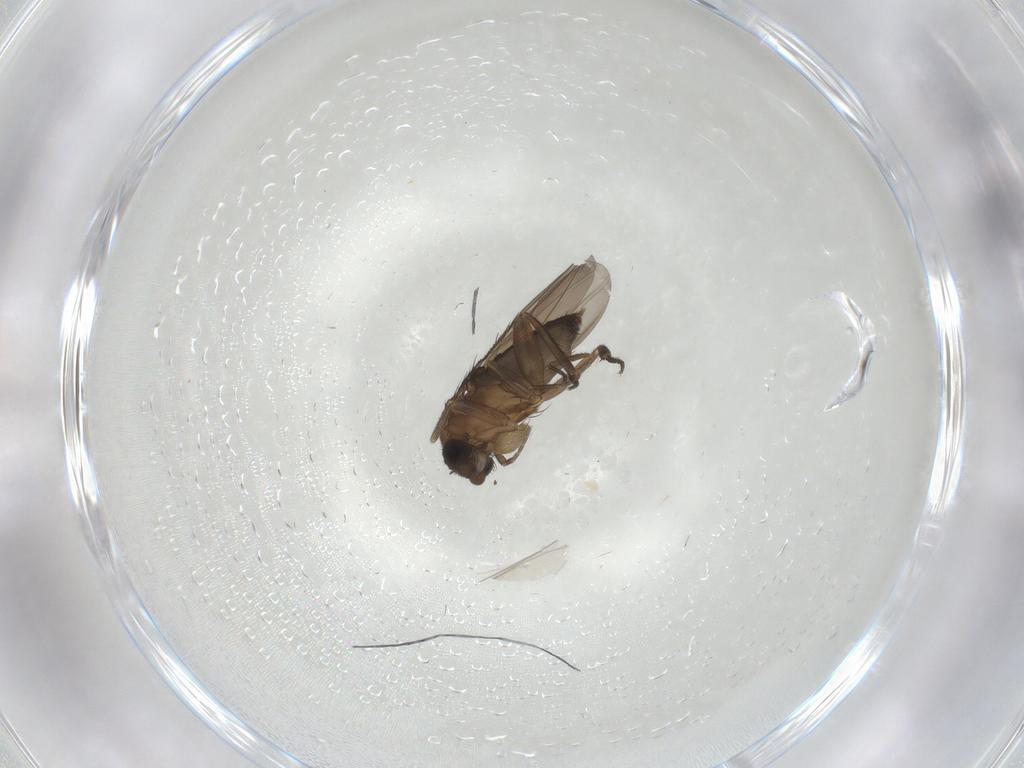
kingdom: Animalia
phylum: Arthropoda
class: Insecta
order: Diptera
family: Phoridae
